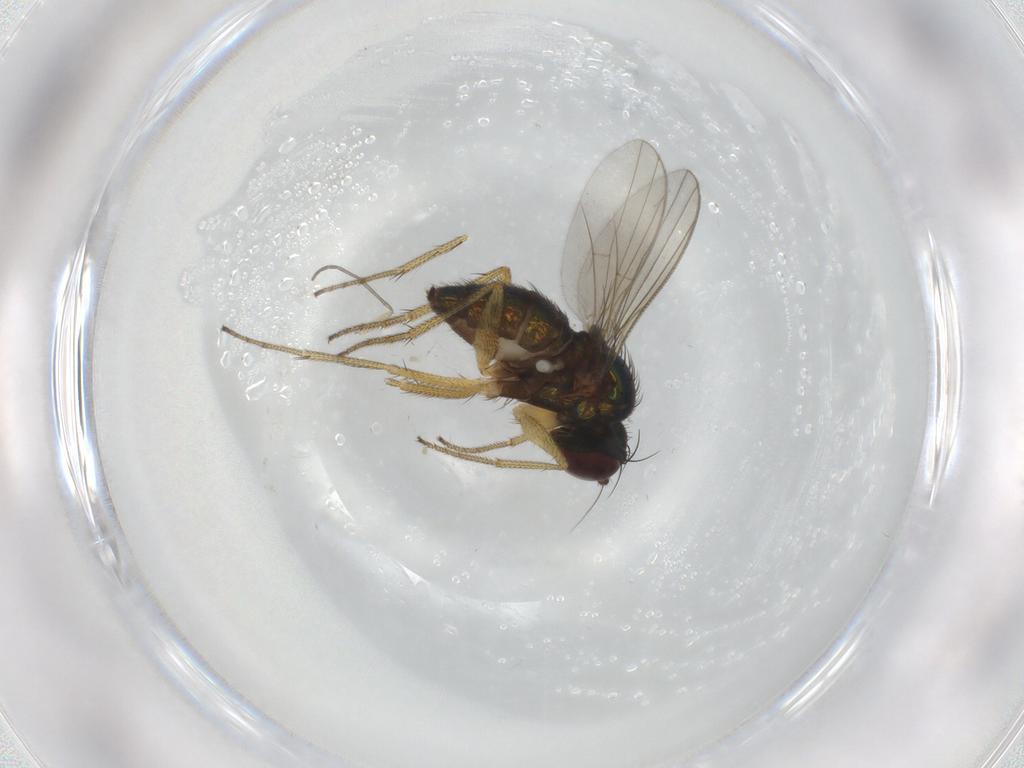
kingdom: Animalia
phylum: Arthropoda
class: Insecta
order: Diptera
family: Dolichopodidae
